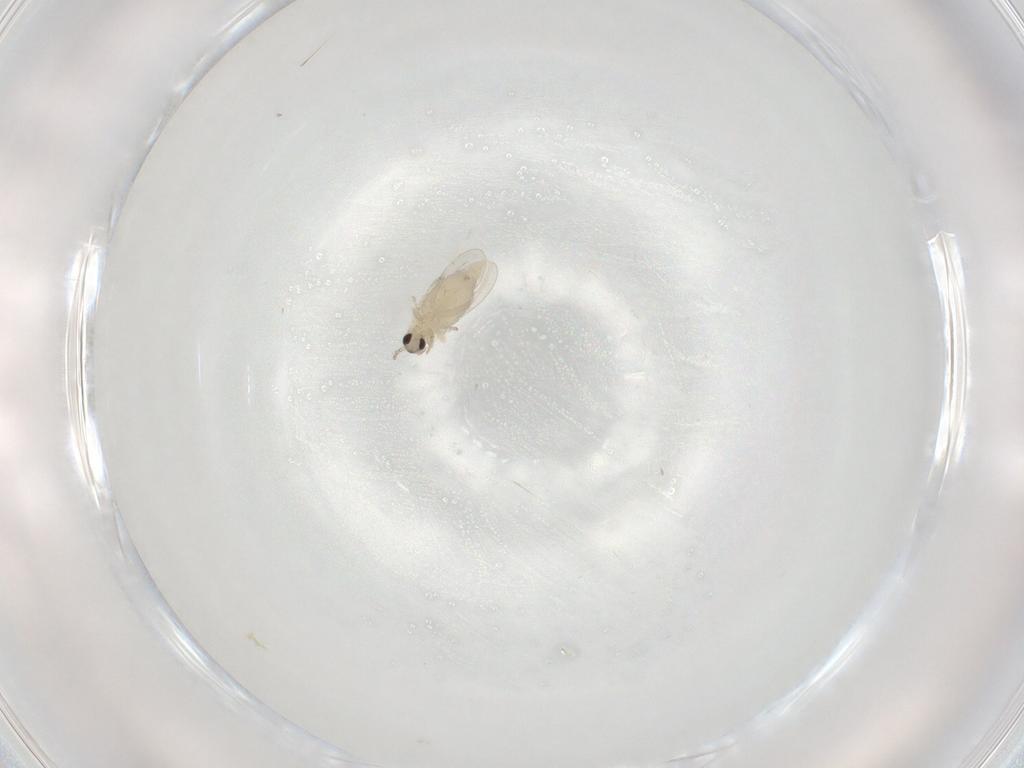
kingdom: Animalia
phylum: Arthropoda
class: Insecta
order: Diptera
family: Cecidomyiidae
